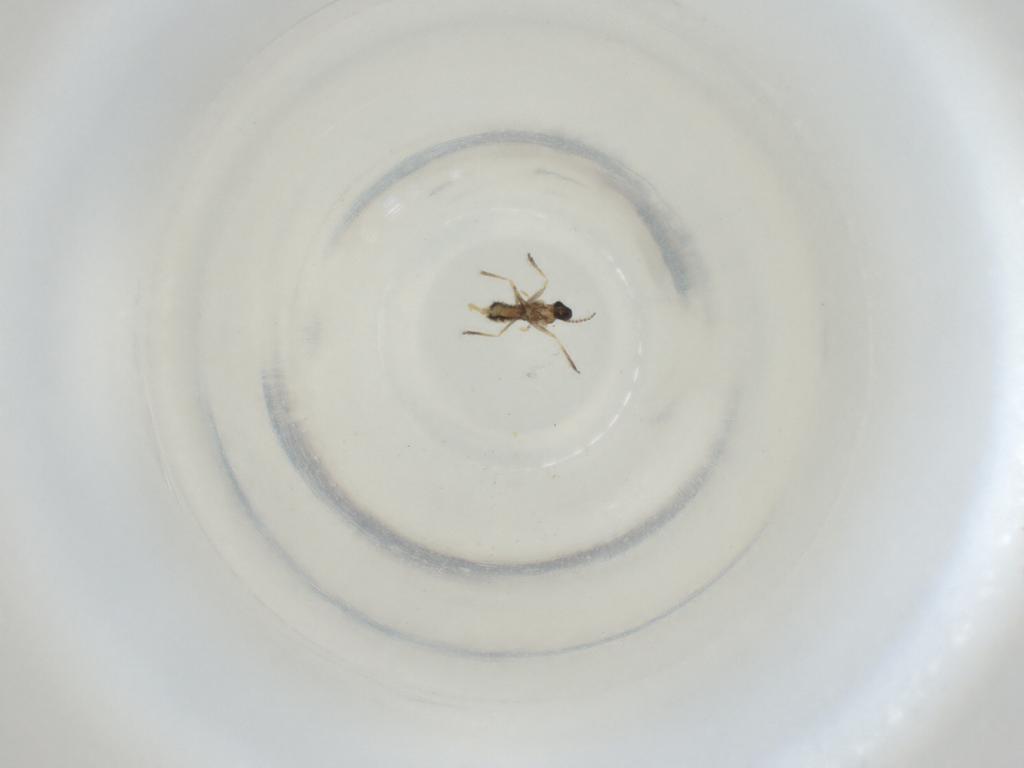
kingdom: Animalia
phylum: Arthropoda
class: Insecta
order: Diptera
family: Cecidomyiidae
